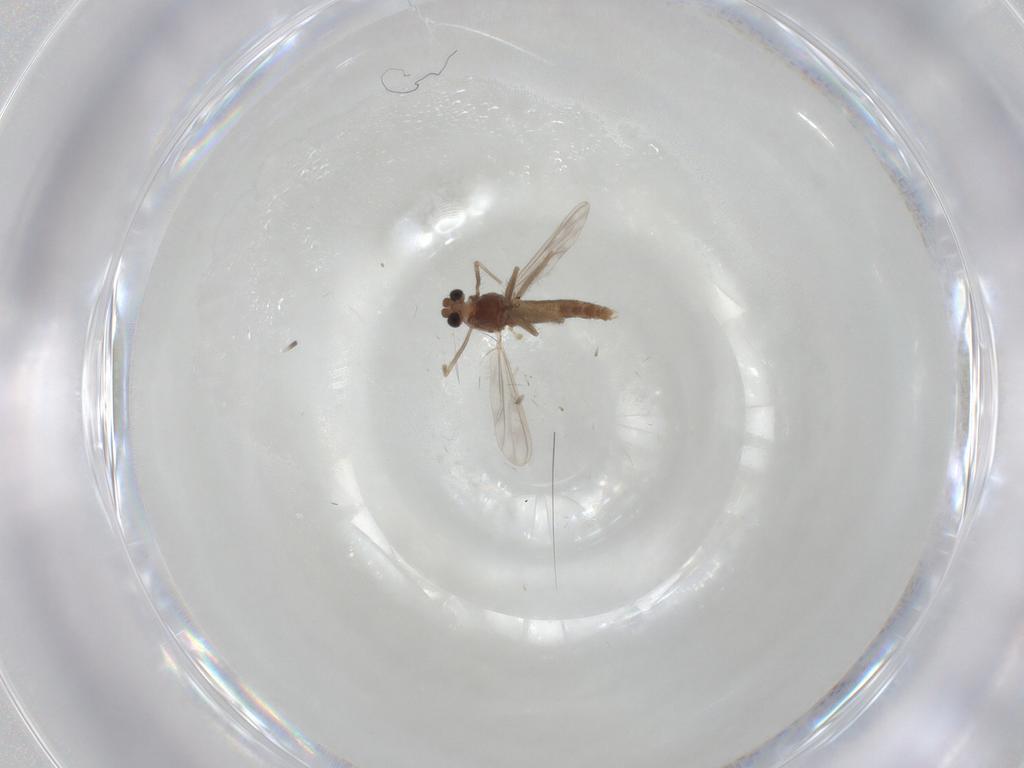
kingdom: Animalia
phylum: Arthropoda
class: Insecta
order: Diptera
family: Chironomidae
